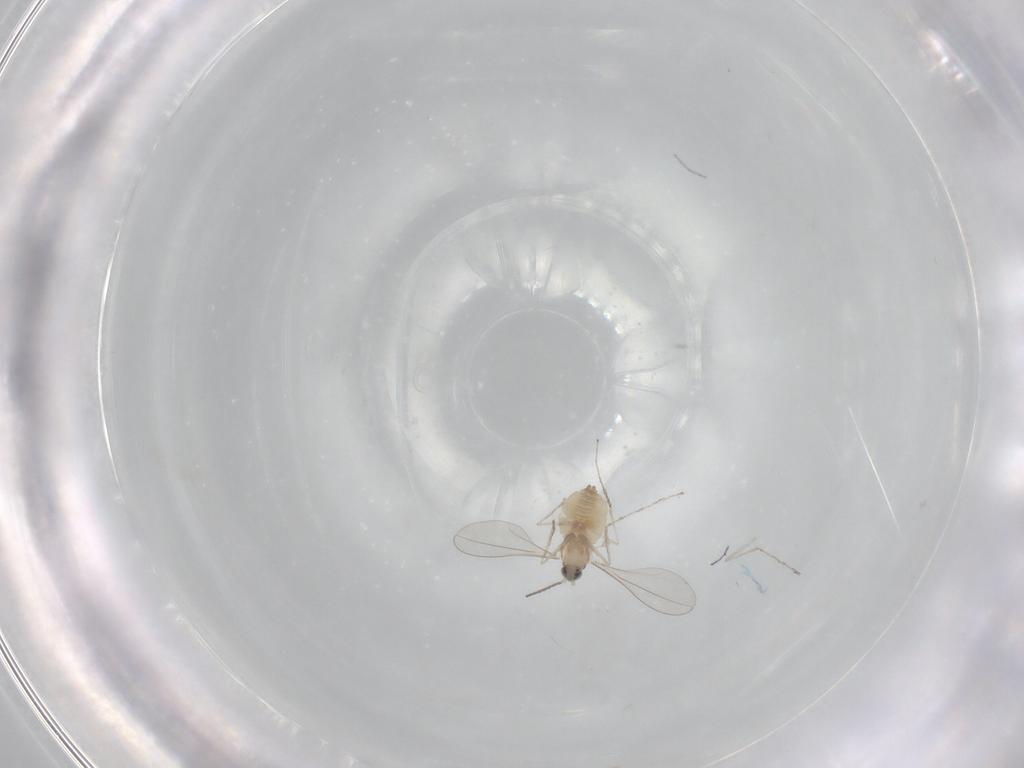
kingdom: Animalia
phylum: Arthropoda
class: Insecta
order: Diptera
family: Cecidomyiidae
